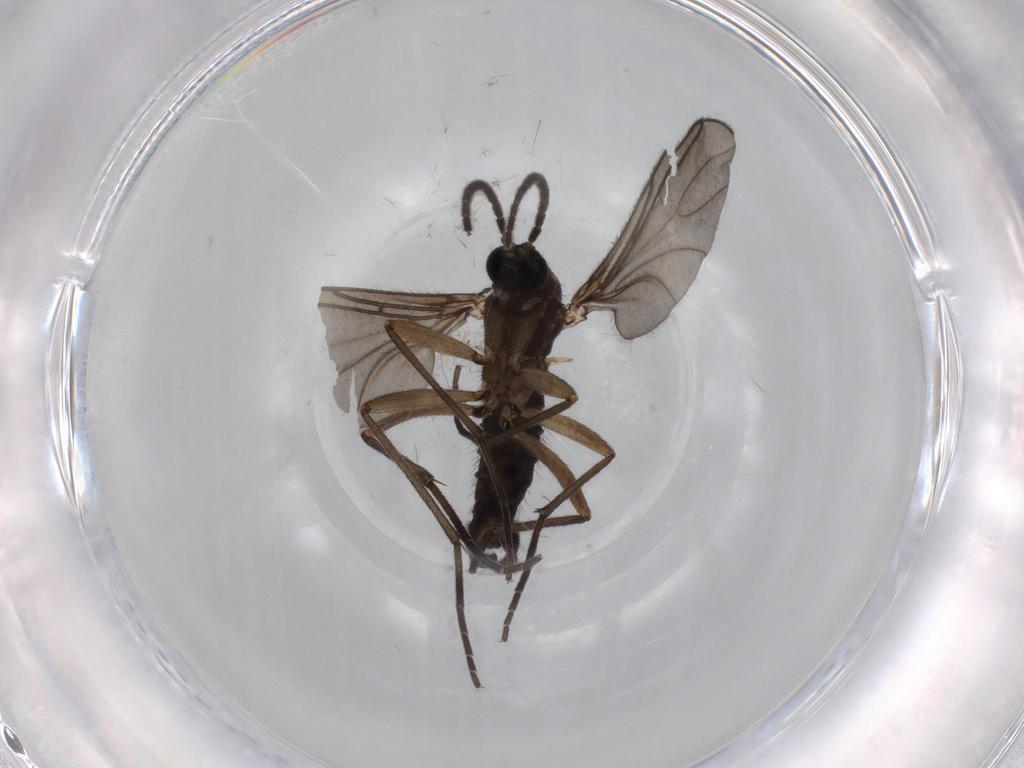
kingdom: Animalia
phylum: Arthropoda
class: Insecta
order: Diptera
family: Sciaridae
